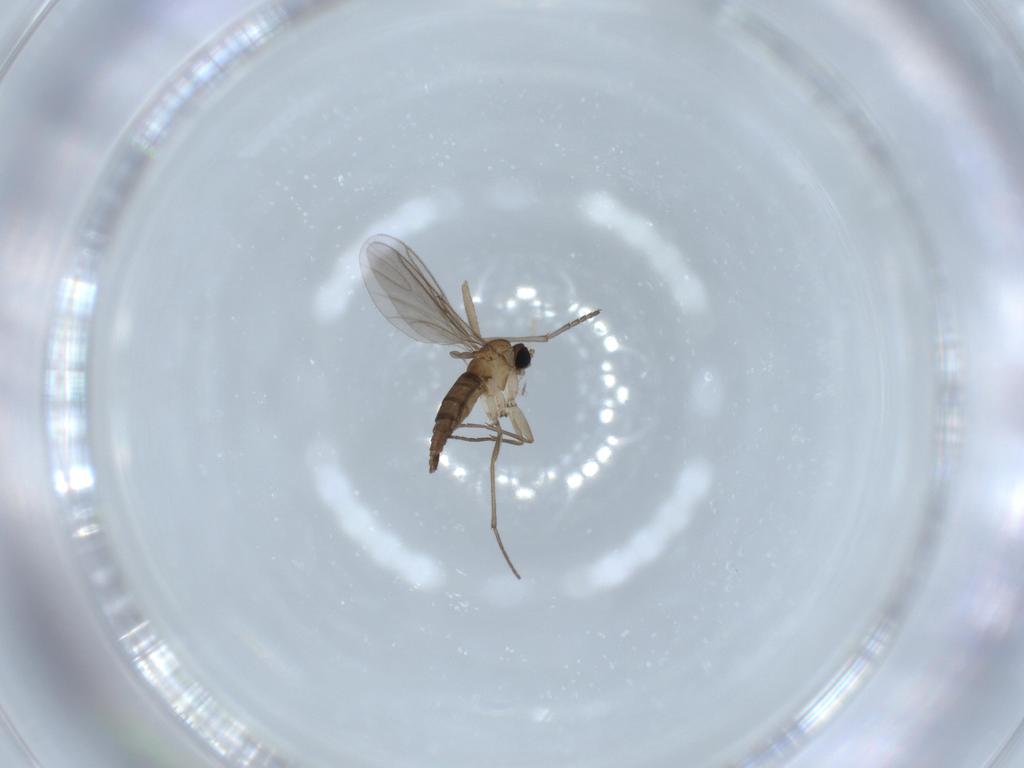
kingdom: Animalia
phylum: Arthropoda
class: Insecta
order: Diptera
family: Sciaridae
